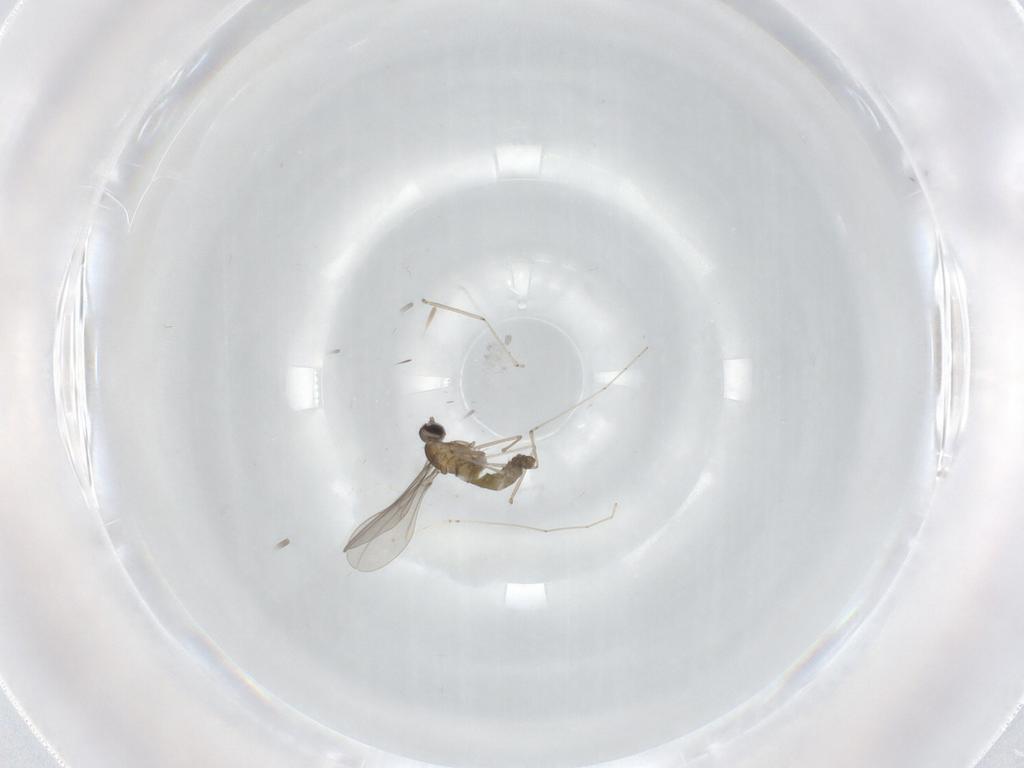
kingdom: Animalia
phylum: Arthropoda
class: Insecta
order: Diptera
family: Cecidomyiidae
